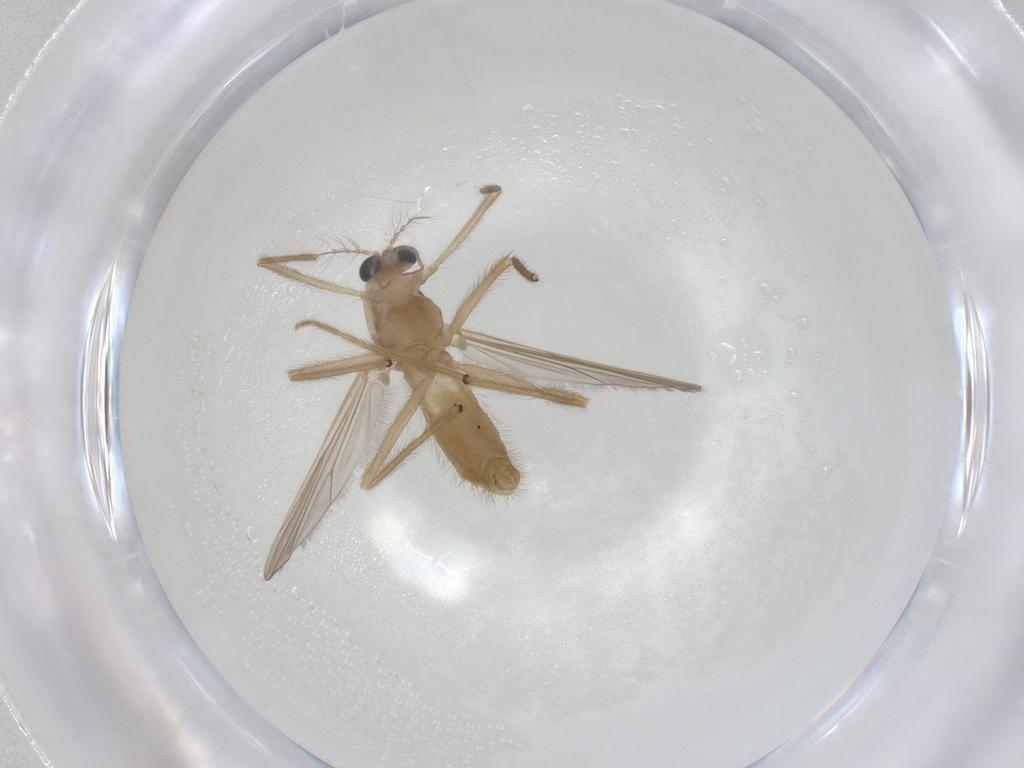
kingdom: Animalia
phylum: Arthropoda
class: Insecta
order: Diptera
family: Chironomidae
